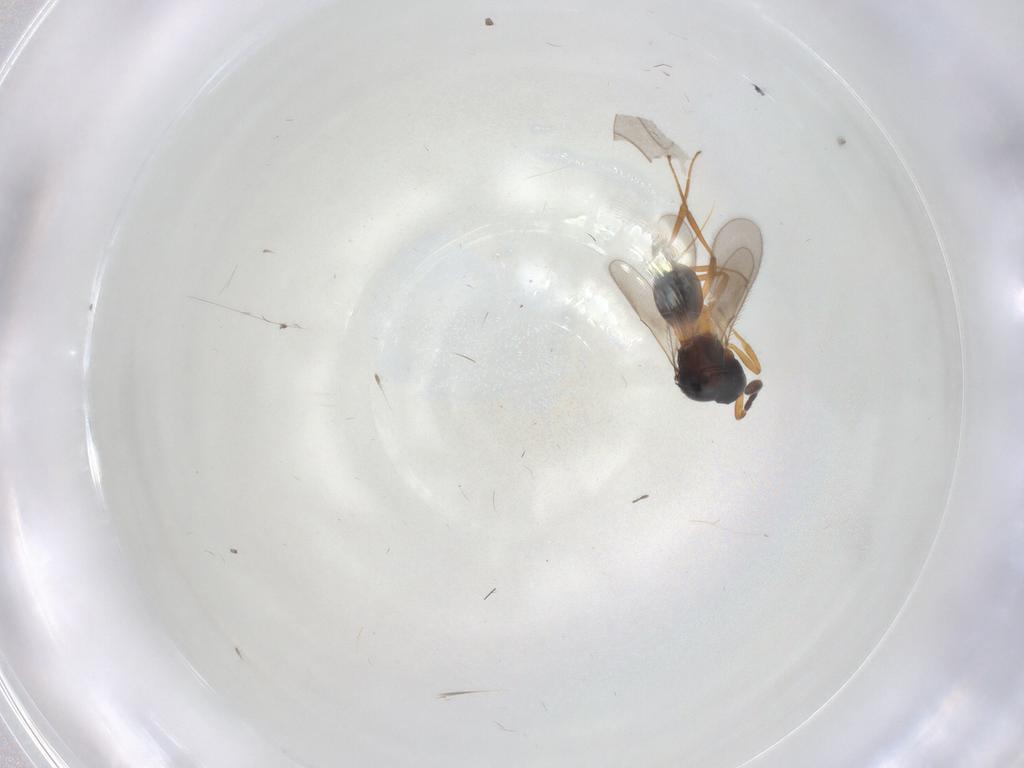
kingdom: Animalia
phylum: Arthropoda
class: Insecta
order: Hymenoptera
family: Scelionidae
